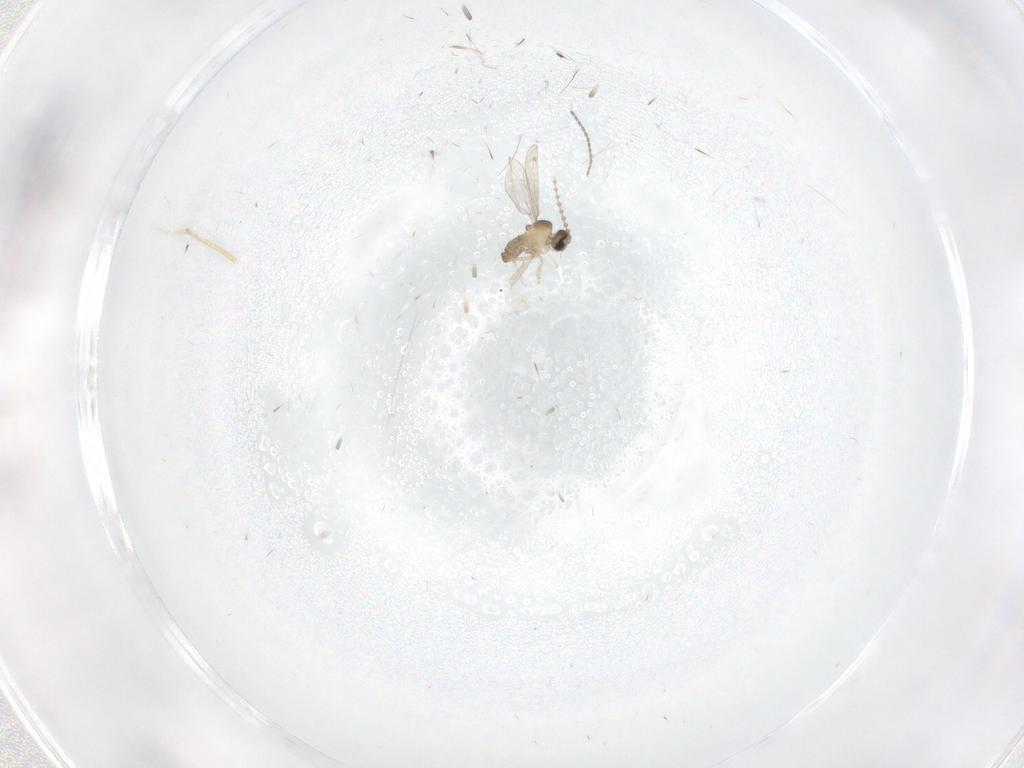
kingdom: Animalia
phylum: Arthropoda
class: Insecta
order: Diptera
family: Cecidomyiidae
